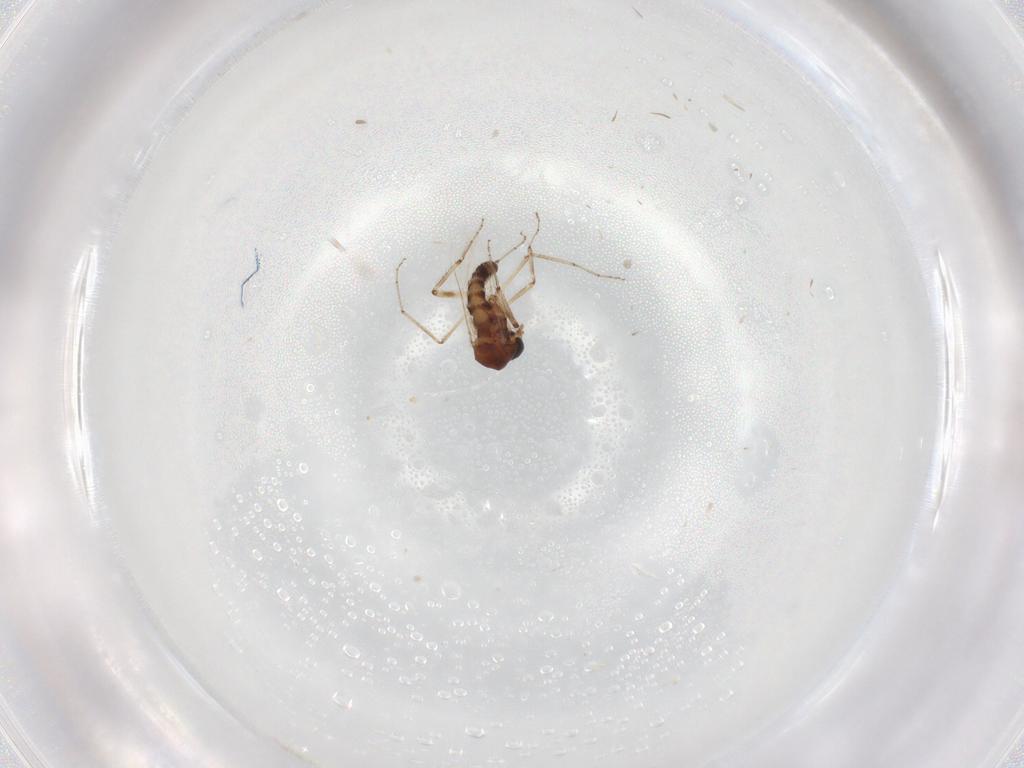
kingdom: Animalia
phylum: Arthropoda
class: Insecta
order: Diptera
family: Ceratopogonidae
